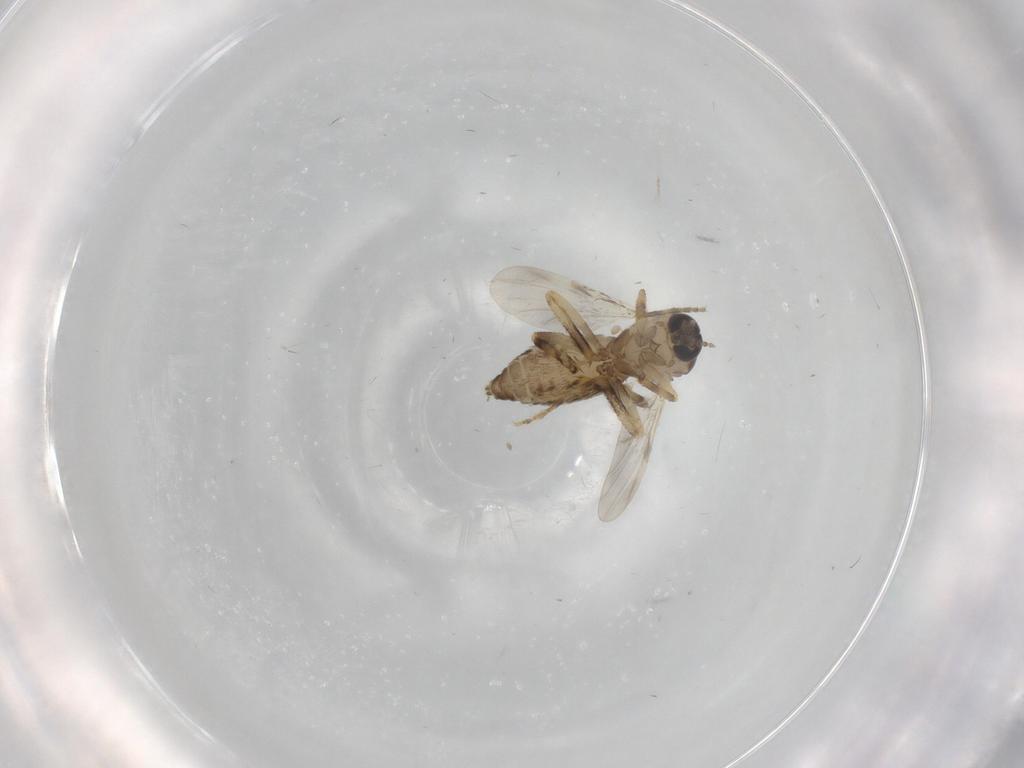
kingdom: Animalia
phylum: Arthropoda
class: Insecta
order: Diptera
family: Ceratopogonidae
